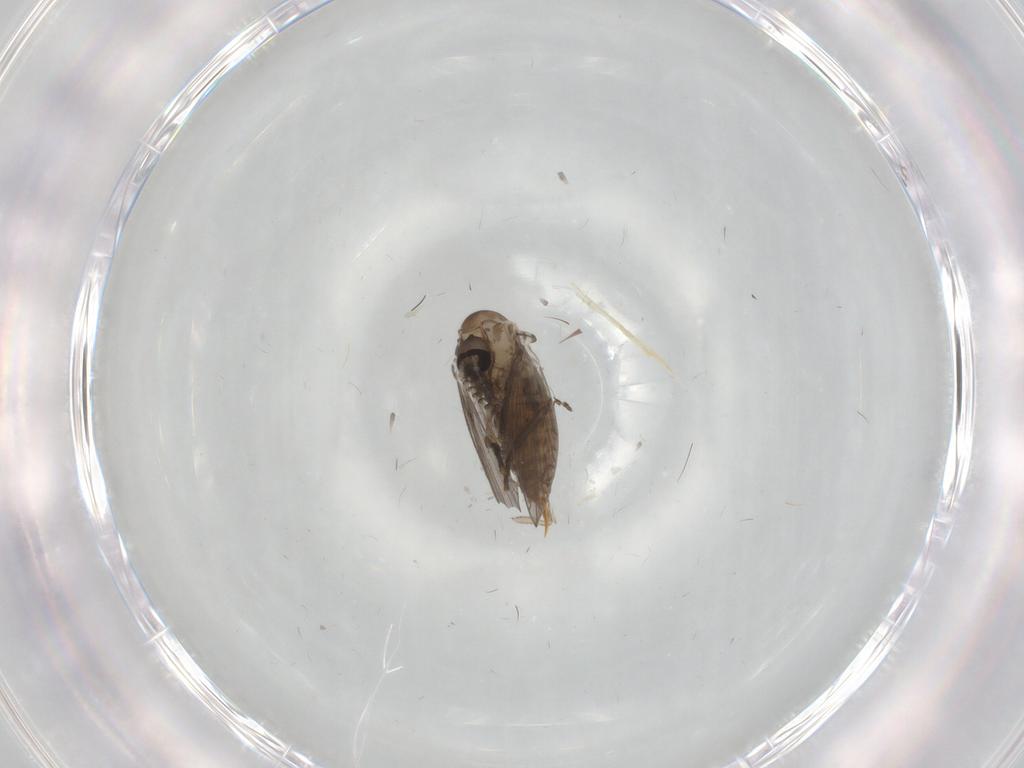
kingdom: Animalia
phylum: Arthropoda
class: Insecta
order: Diptera
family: Psychodidae
